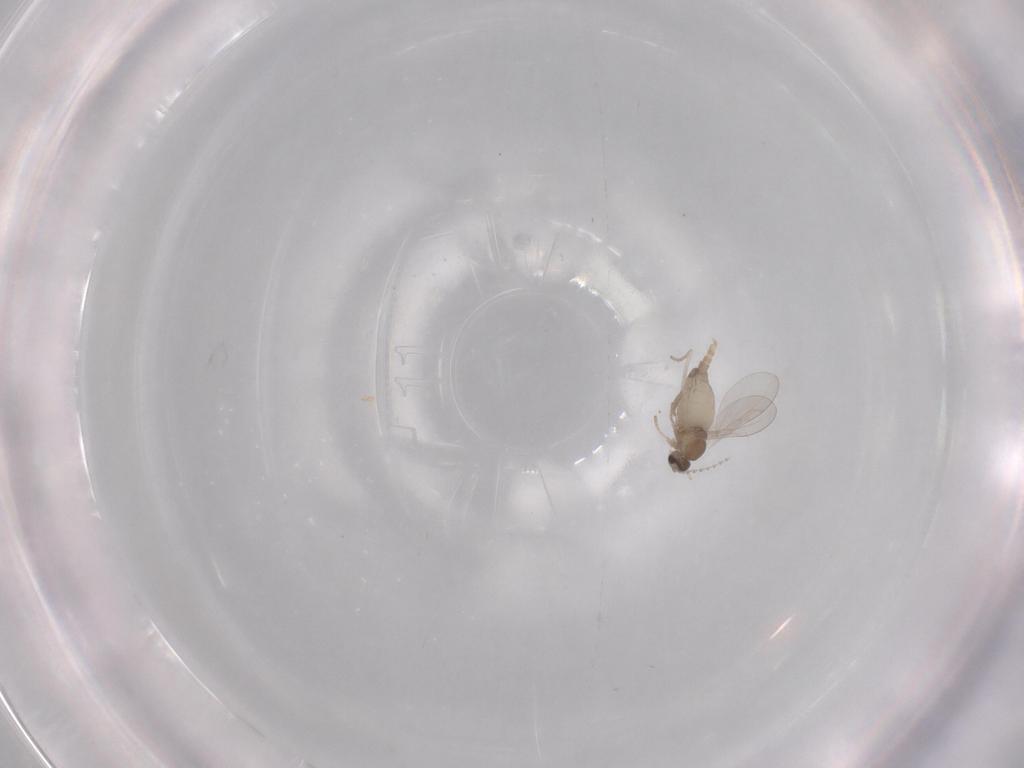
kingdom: Animalia
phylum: Arthropoda
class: Insecta
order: Diptera
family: Cecidomyiidae
